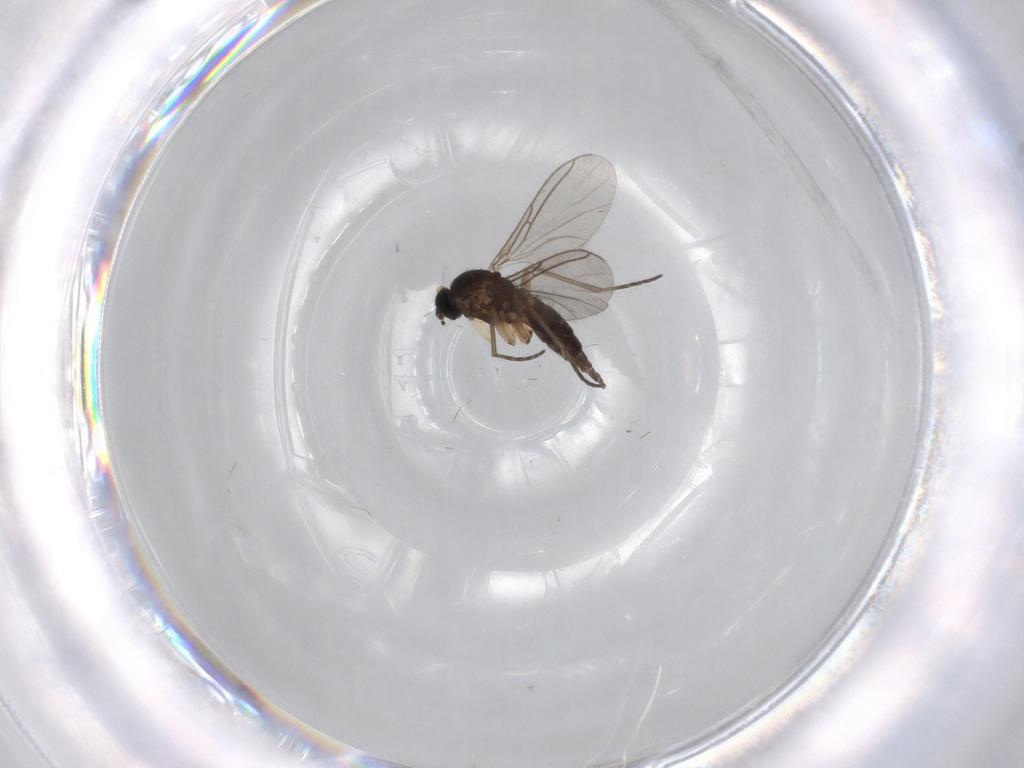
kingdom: Animalia
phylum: Arthropoda
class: Insecta
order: Diptera
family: Sciaridae
